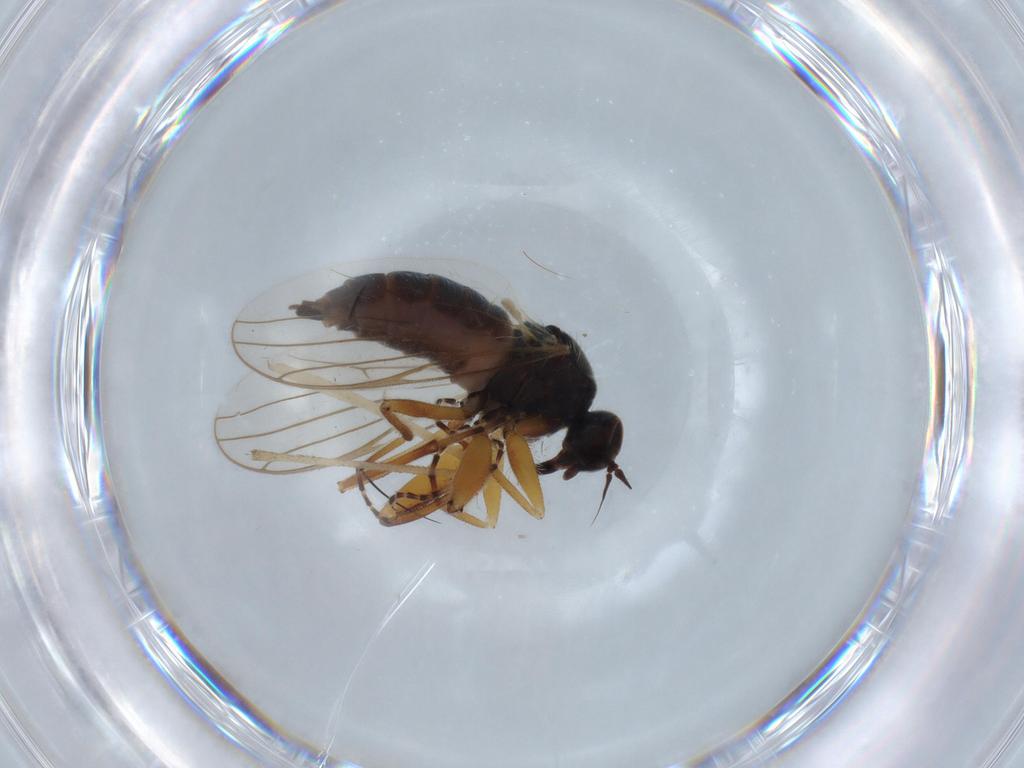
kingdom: Animalia
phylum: Arthropoda
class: Insecta
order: Diptera
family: Hybotidae
